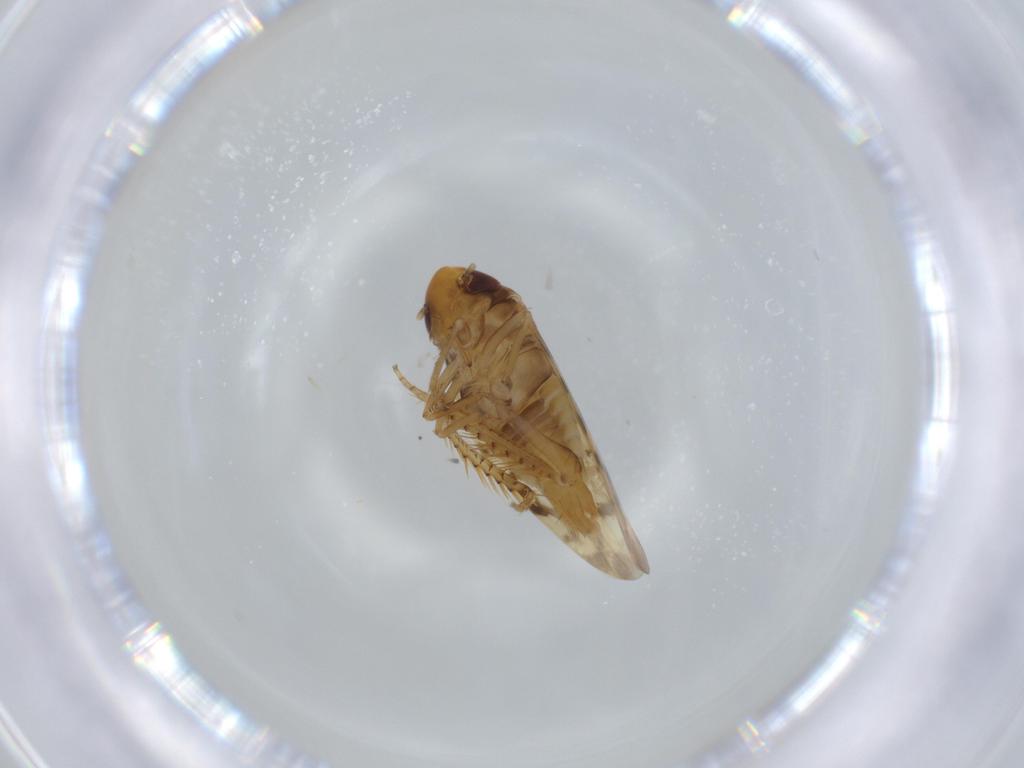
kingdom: Animalia
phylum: Arthropoda
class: Insecta
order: Hemiptera
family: Cicadellidae
